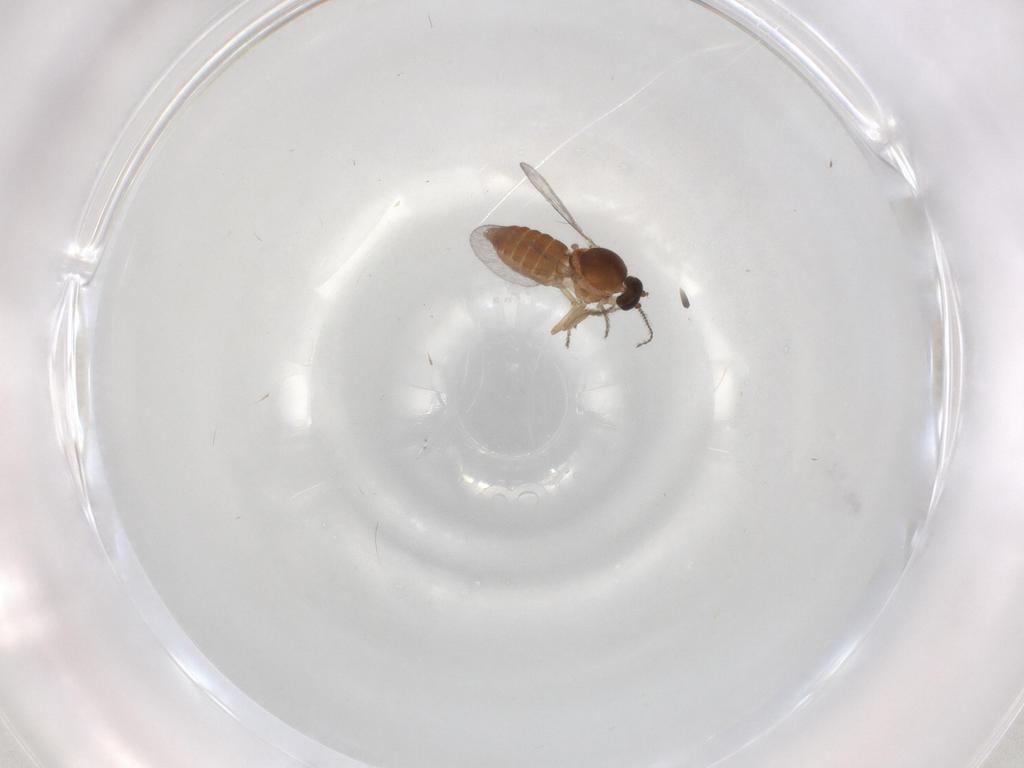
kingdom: Animalia
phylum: Arthropoda
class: Insecta
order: Diptera
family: Ceratopogonidae
